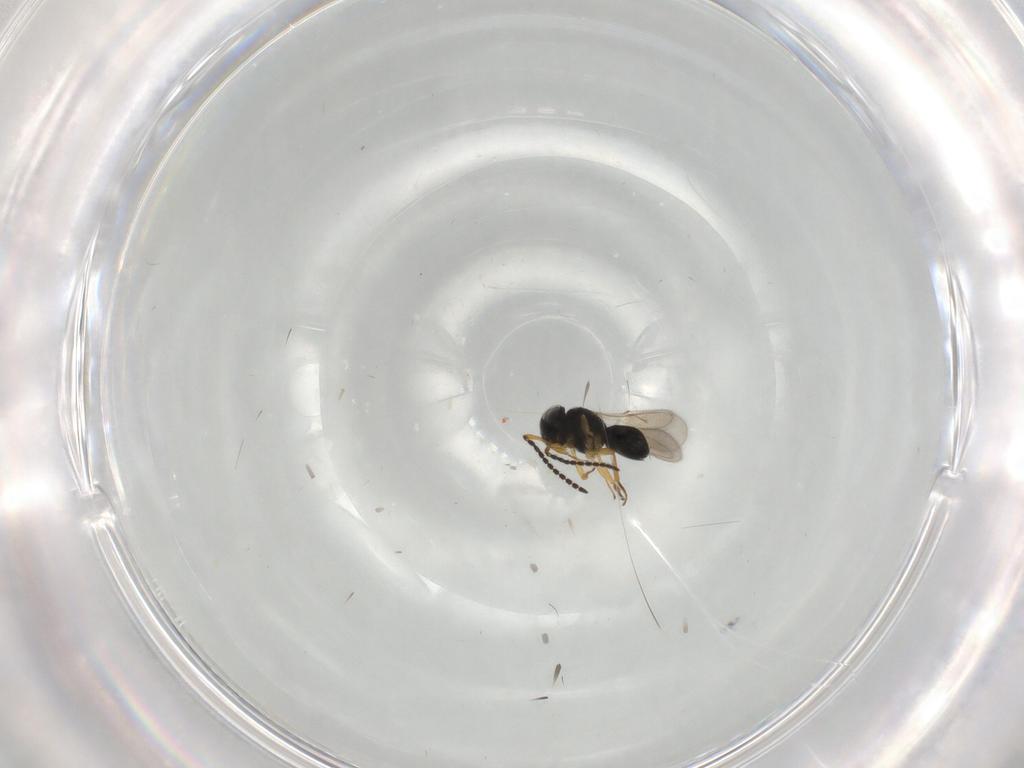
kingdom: Animalia
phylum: Arthropoda
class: Insecta
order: Hymenoptera
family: Scelionidae
